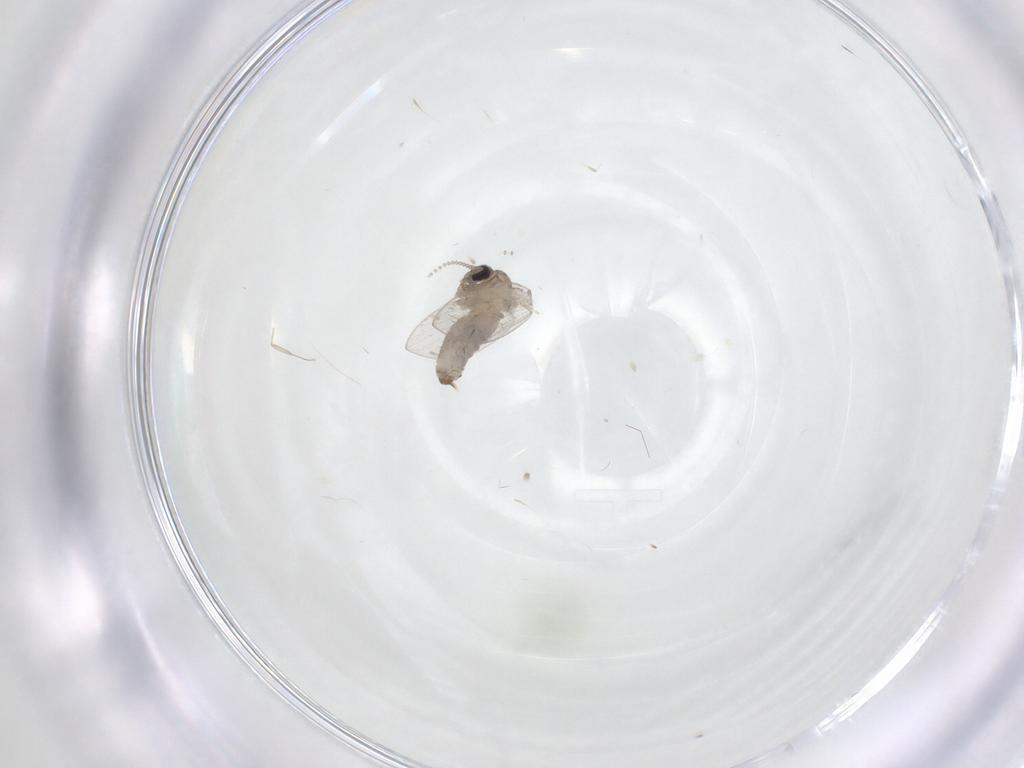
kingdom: Animalia
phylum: Arthropoda
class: Insecta
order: Diptera
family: Psychodidae
